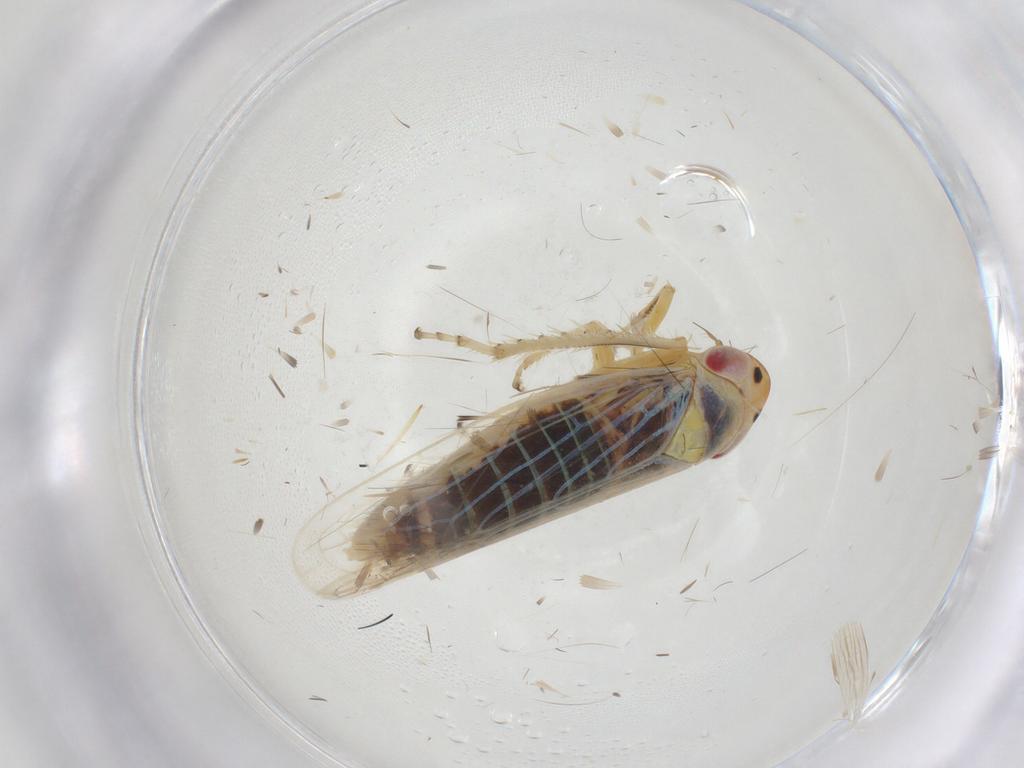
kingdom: Animalia
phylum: Arthropoda
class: Insecta
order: Hemiptera
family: Cicadellidae
